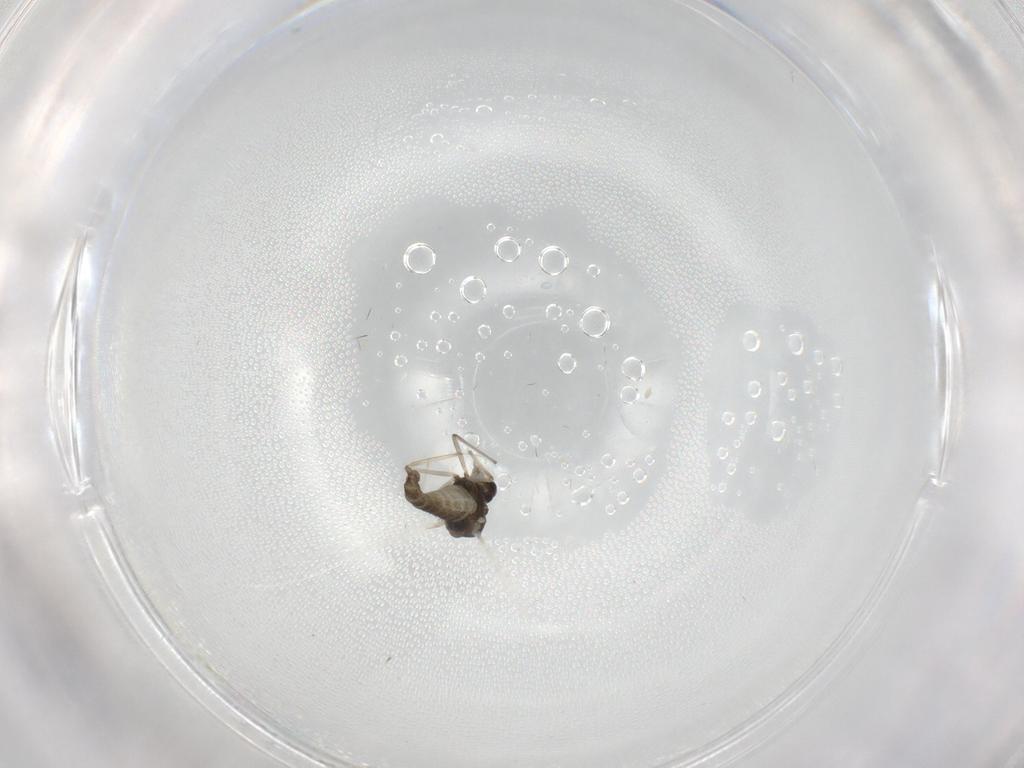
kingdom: Animalia
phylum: Arthropoda
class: Insecta
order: Diptera
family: Chironomidae
